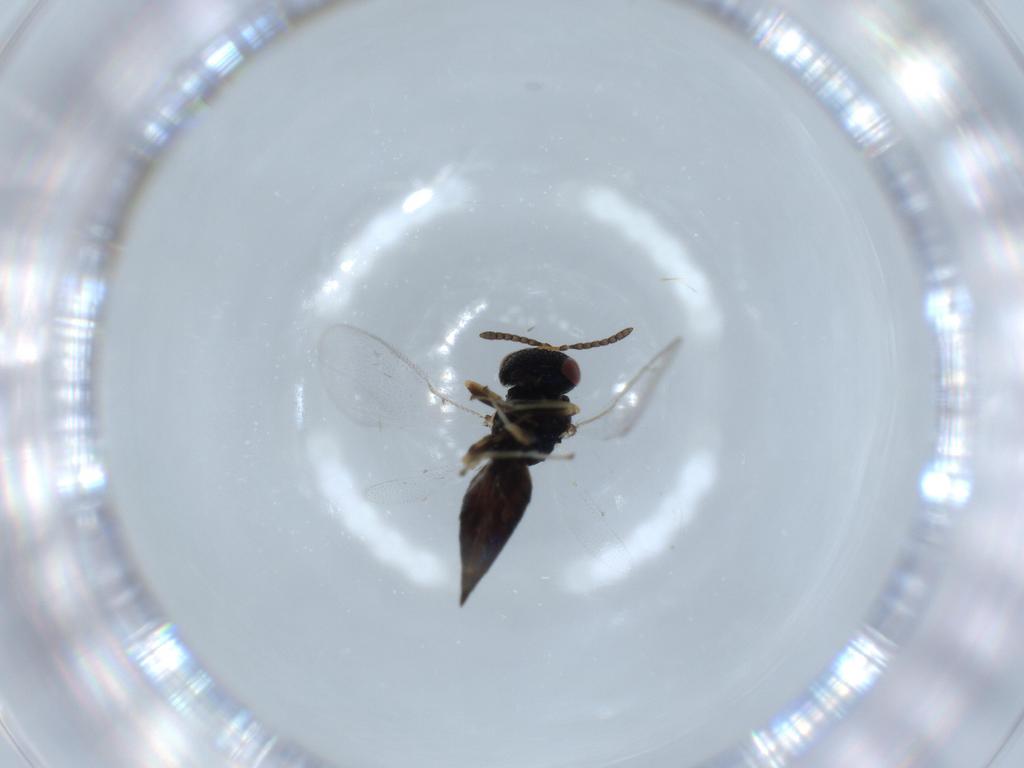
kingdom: Animalia
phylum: Arthropoda
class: Insecta
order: Hymenoptera
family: Pteromalidae
